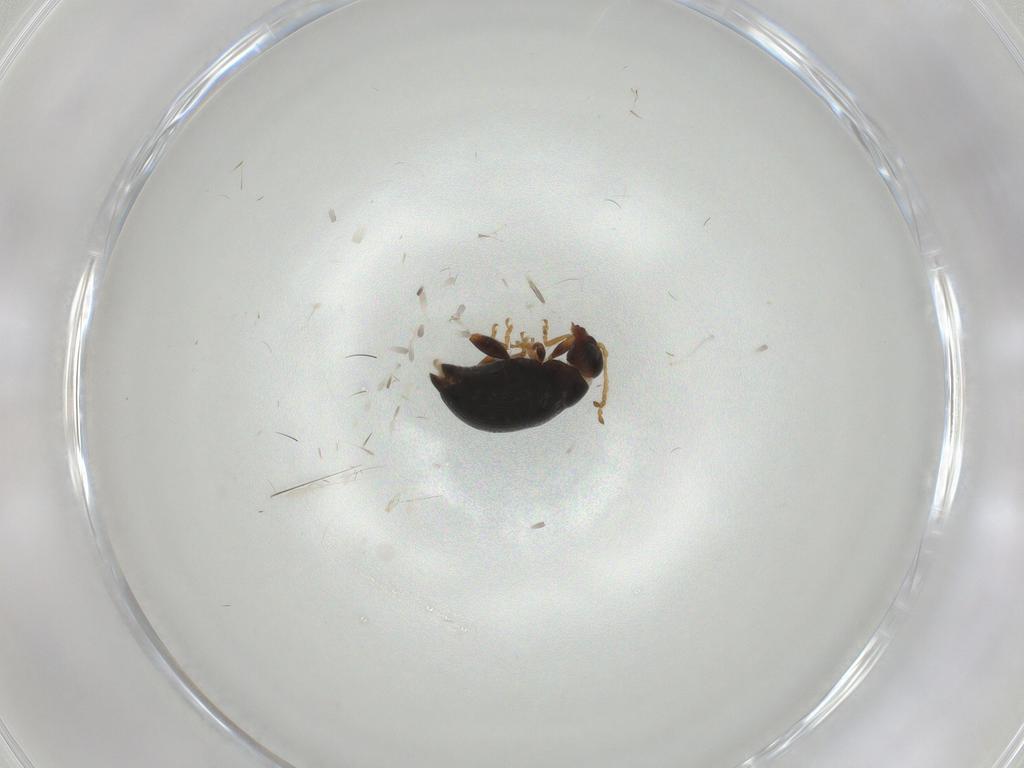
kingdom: Animalia
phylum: Arthropoda
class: Insecta
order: Coleoptera
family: Chrysomelidae
